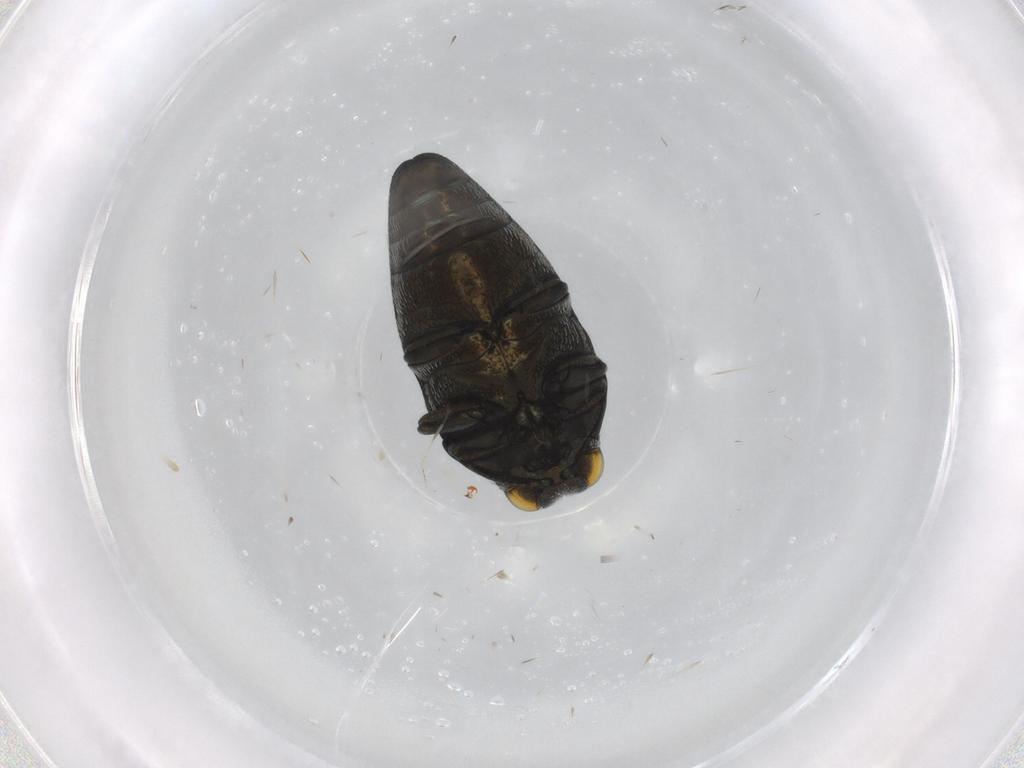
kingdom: Animalia
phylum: Arthropoda
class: Insecta
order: Coleoptera
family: Buprestidae
